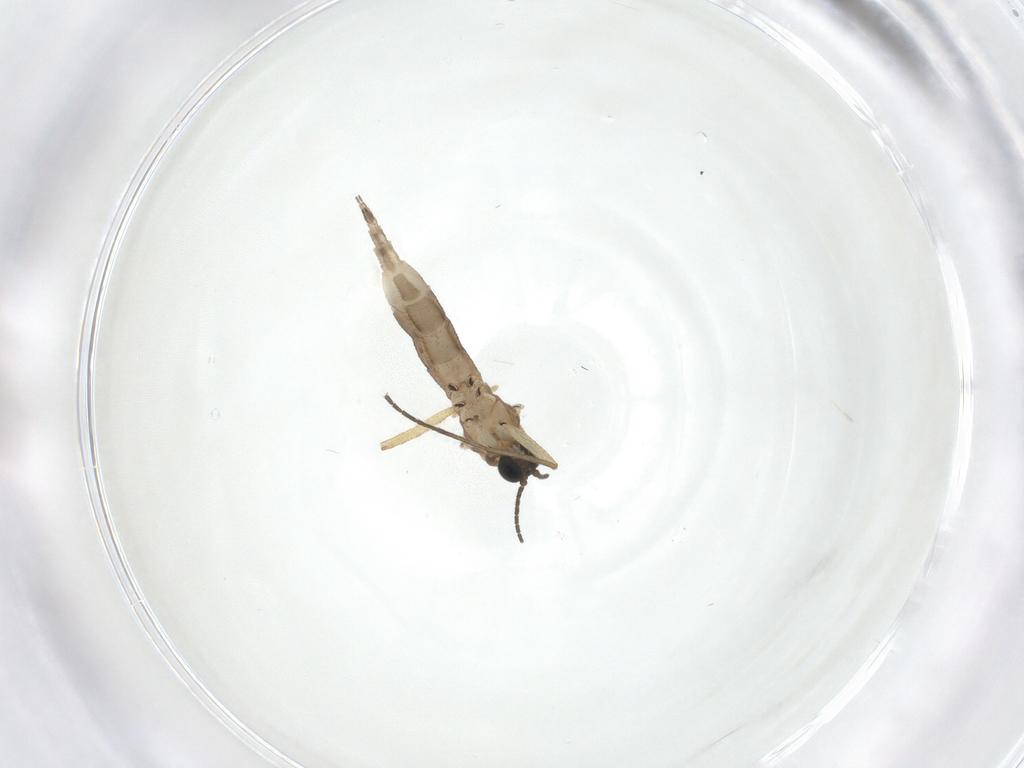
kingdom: Animalia
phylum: Arthropoda
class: Insecta
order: Diptera
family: Sciaridae
